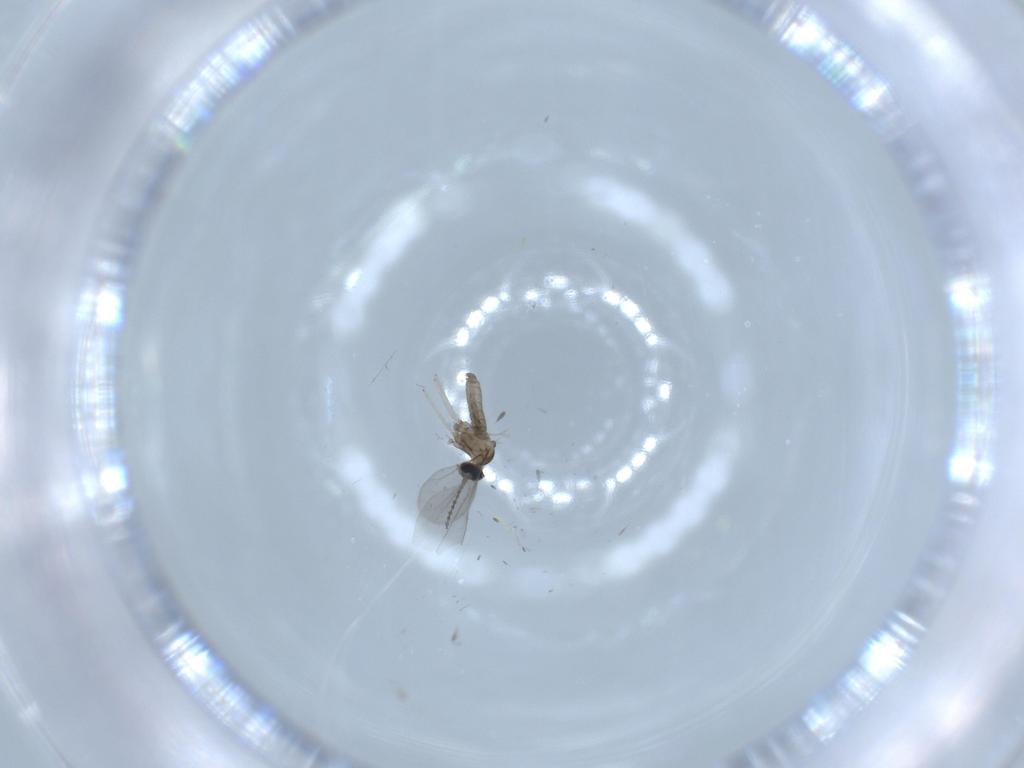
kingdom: Animalia
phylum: Arthropoda
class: Insecta
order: Diptera
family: Cecidomyiidae
